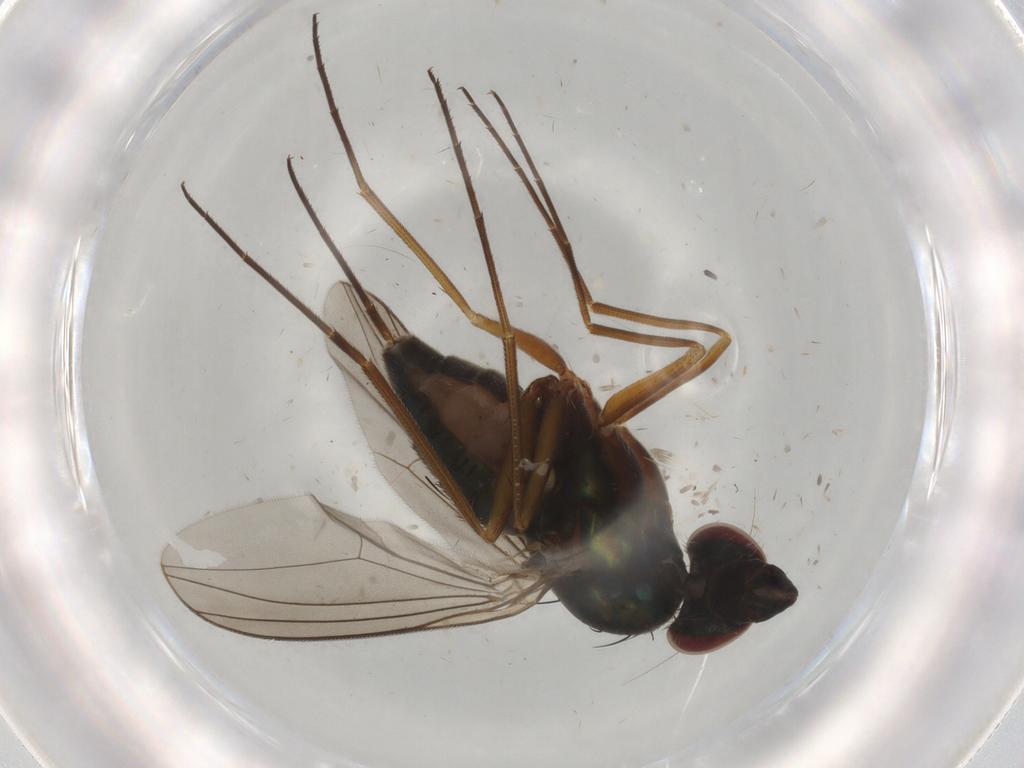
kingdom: Animalia
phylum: Arthropoda
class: Insecta
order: Diptera
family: Dolichopodidae
